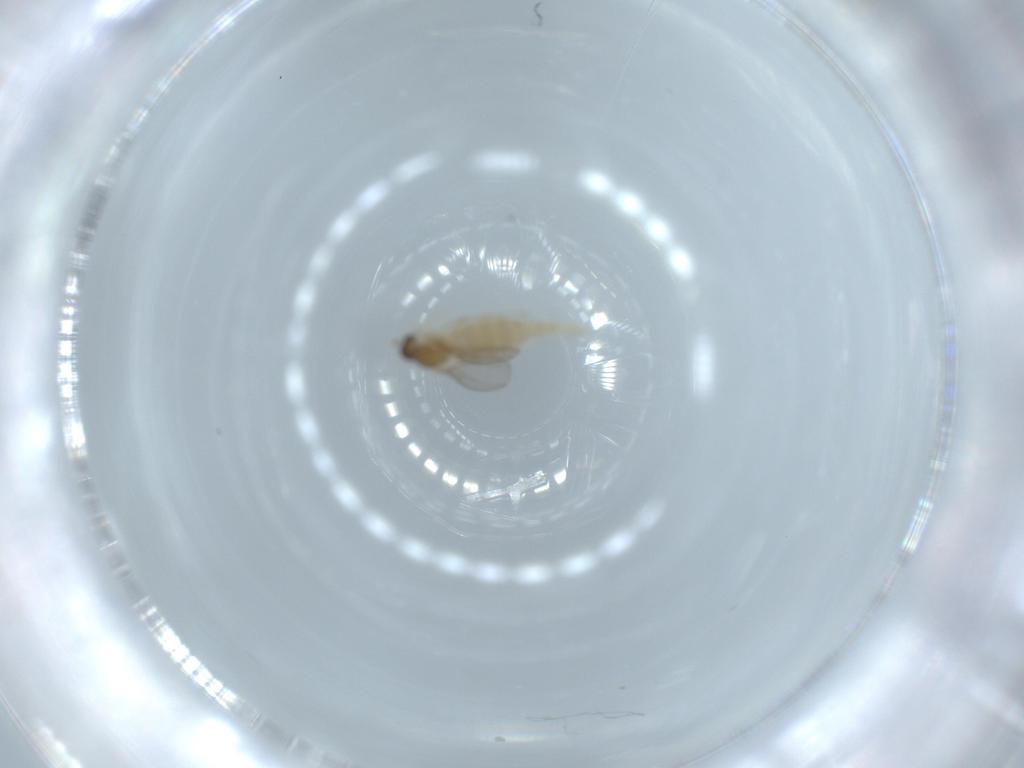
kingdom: Animalia
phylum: Arthropoda
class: Insecta
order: Diptera
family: Cecidomyiidae
